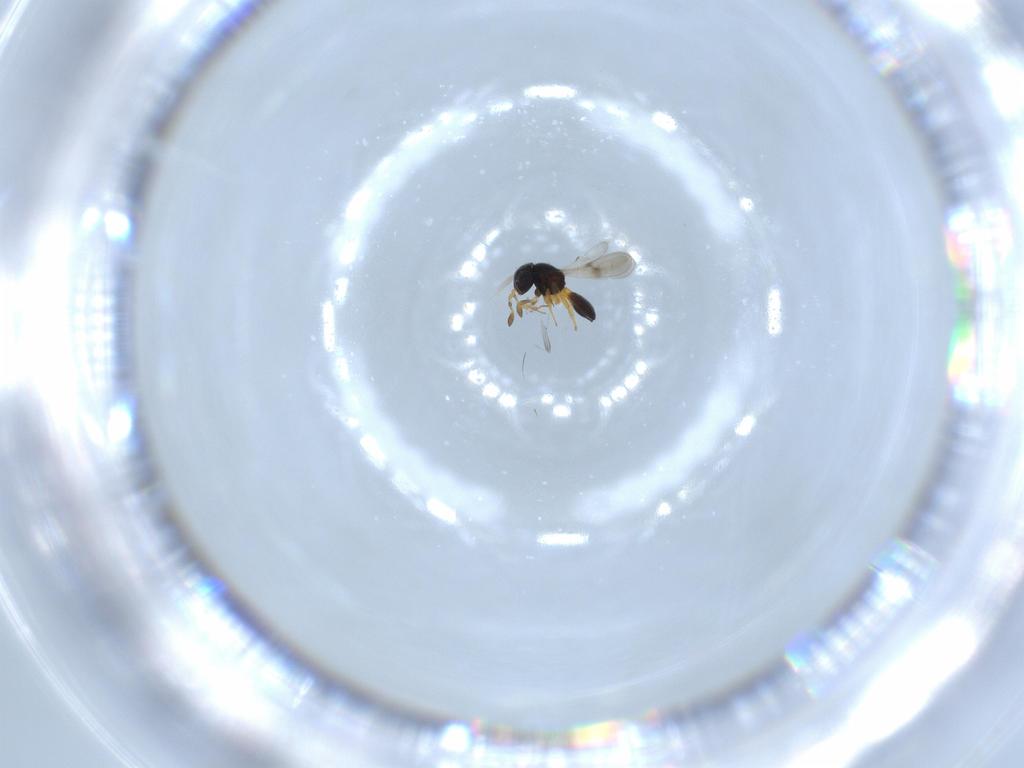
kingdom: Animalia
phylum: Arthropoda
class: Insecta
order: Hymenoptera
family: Scelionidae
